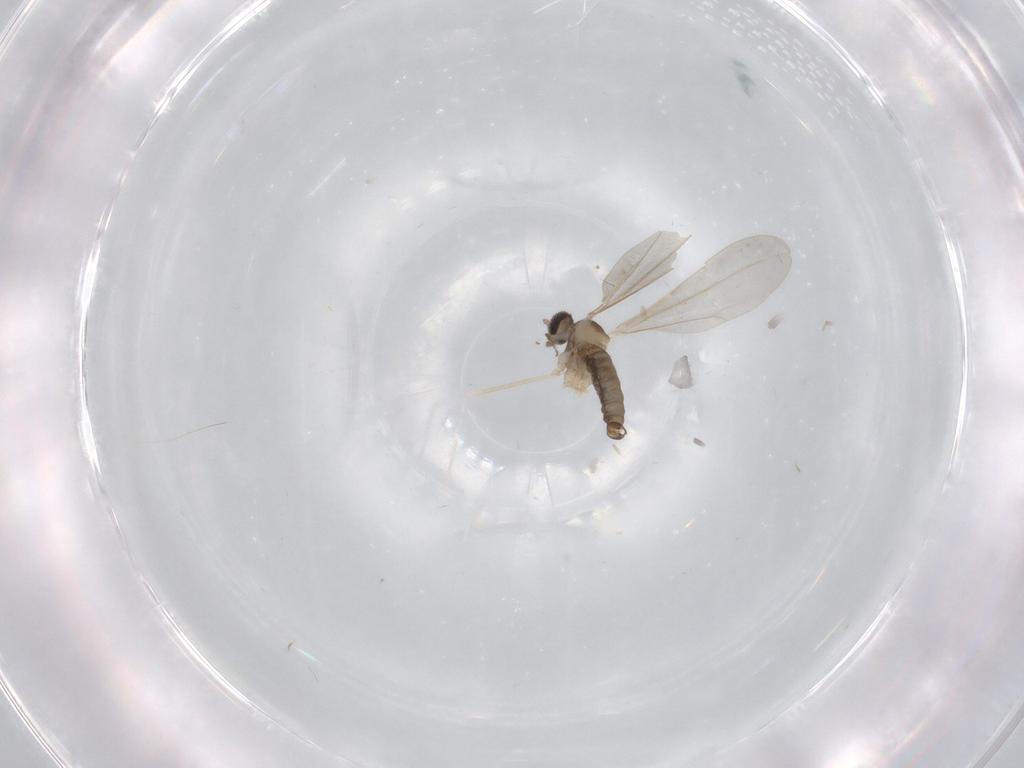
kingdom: Animalia
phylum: Arthropoda
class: Insecta
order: Diptera
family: Cecidomyiidae
